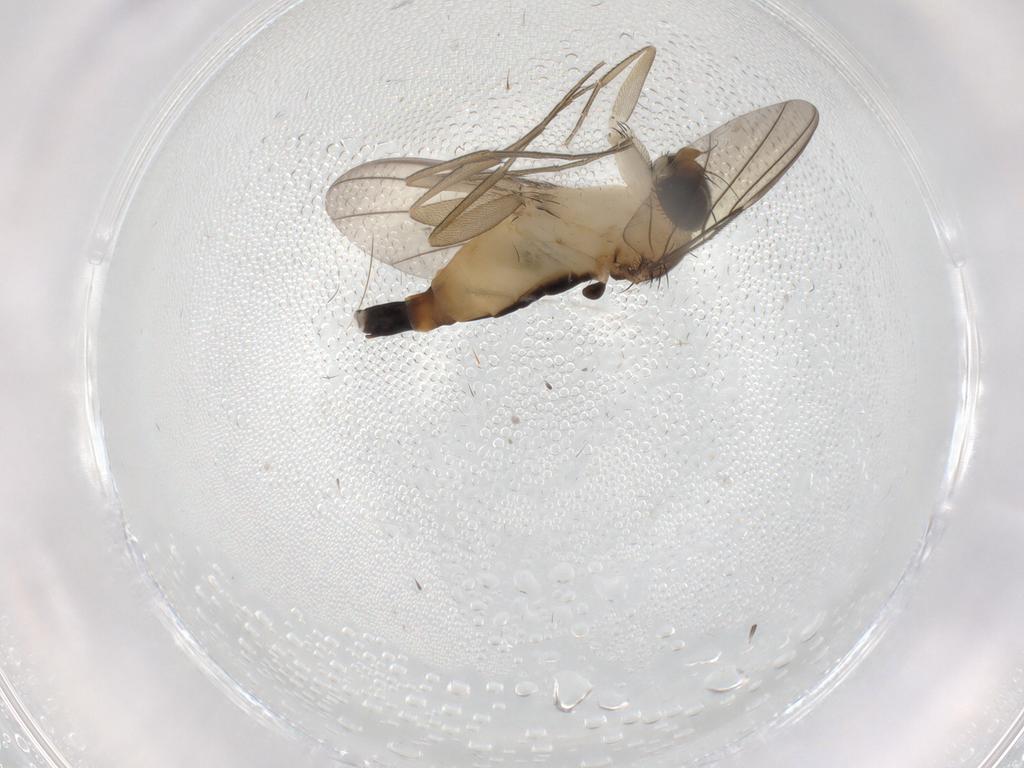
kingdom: Animalia
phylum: Arthropoda
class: Insecta
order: Diptera
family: Phoridae
